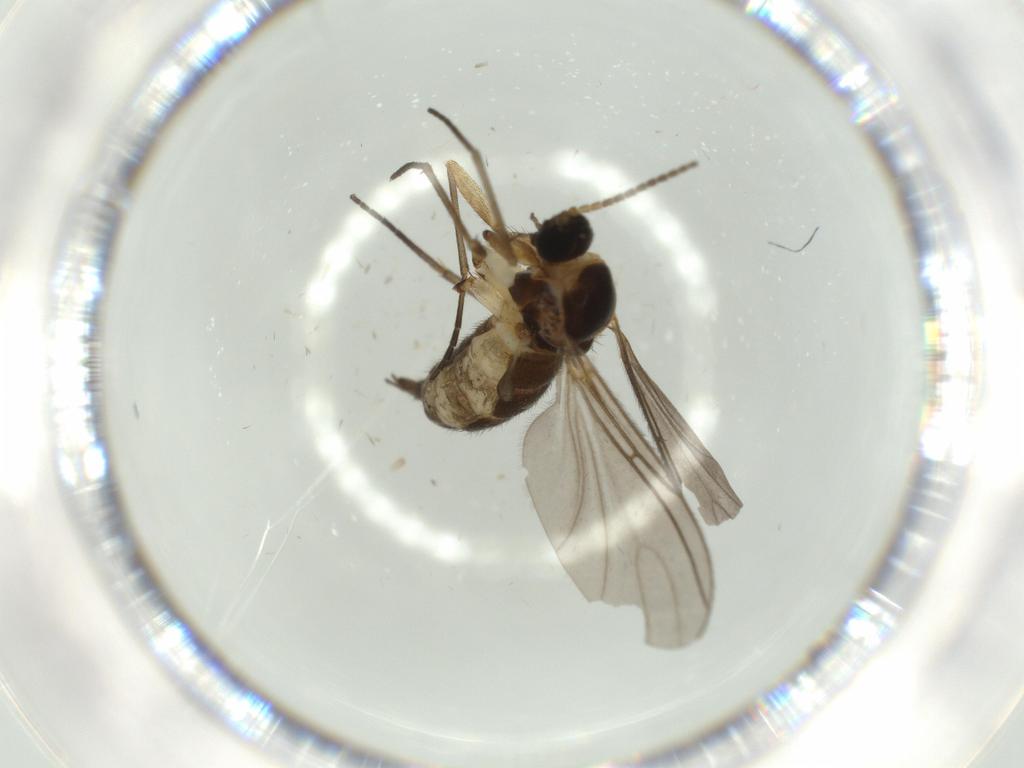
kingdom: Animalia
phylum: Arthropoda
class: Insecta
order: Diptera
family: Sciaridae
